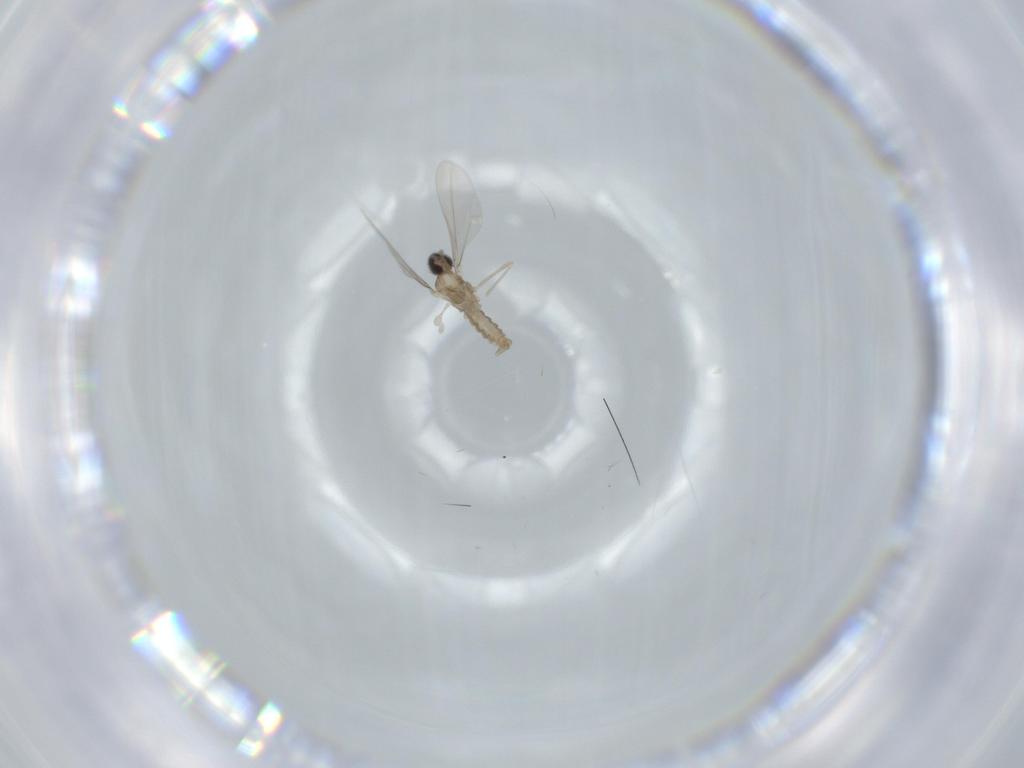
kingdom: Animalia
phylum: Arthropoda
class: Insecta
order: Diptera
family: Cecidomyiidae
